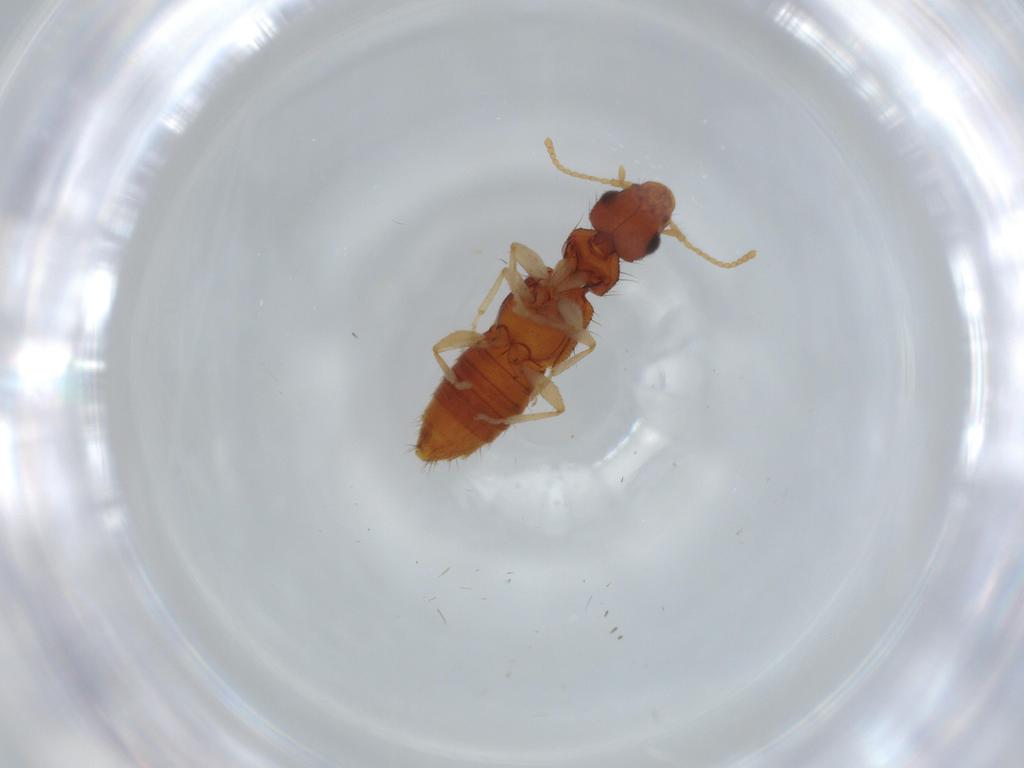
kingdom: Animalia
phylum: Arthropoda
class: Insecta
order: Coleoptera
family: Staphylinidae
